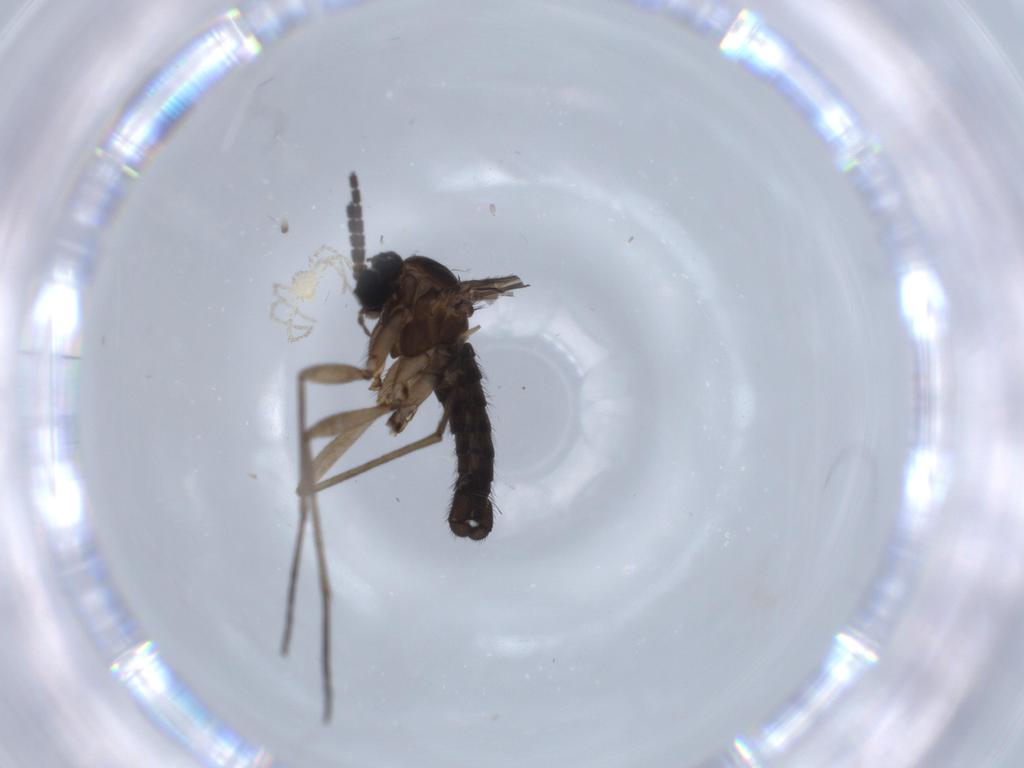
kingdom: Animalia
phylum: Arthropoda
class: Insecta
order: Diptera
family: Sciaridae
